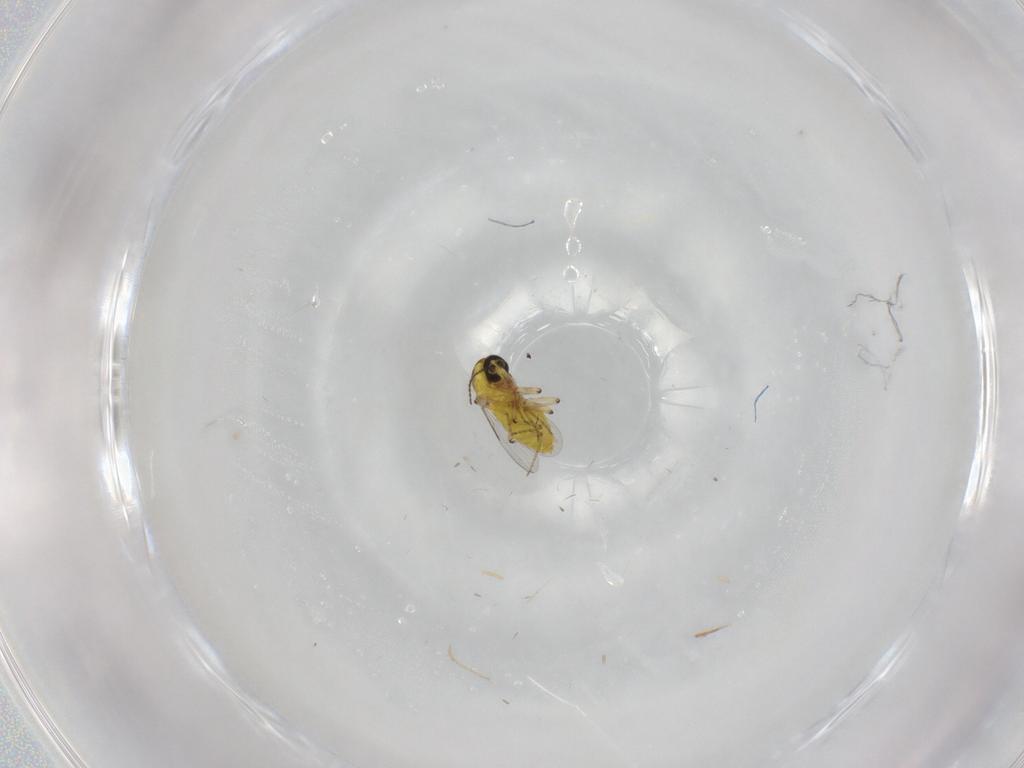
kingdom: Animalia
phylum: Arthropoda
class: Insecta
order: Diptera
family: Ceratopogonidae
